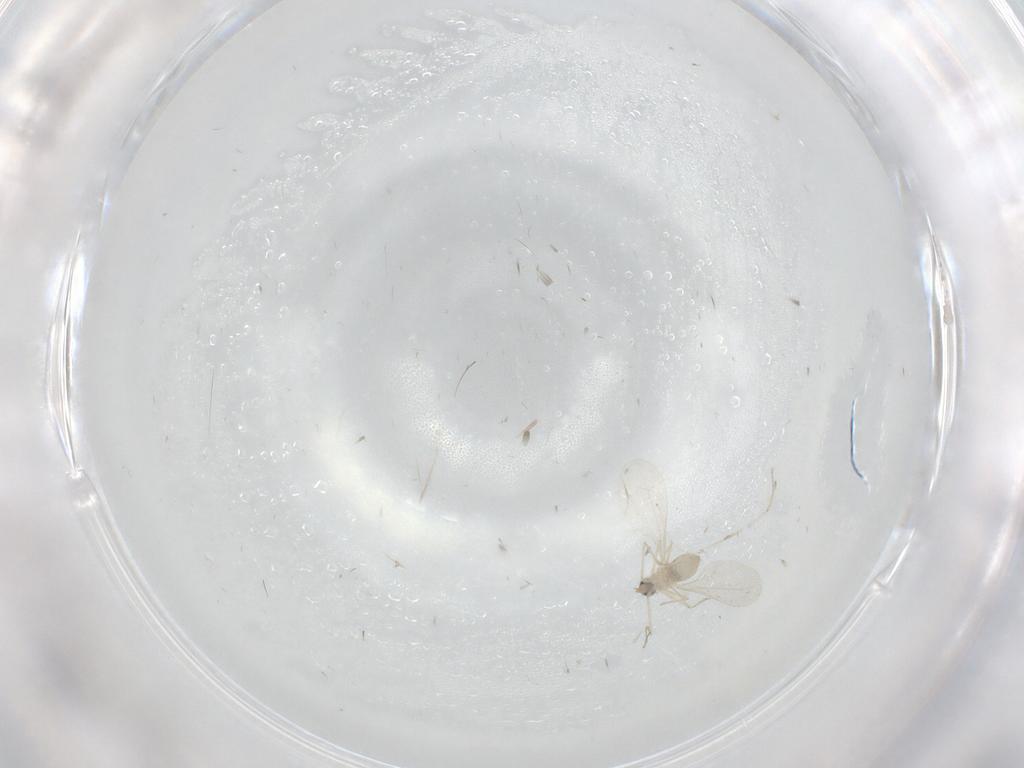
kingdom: Animalia
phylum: Arthropoda
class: Insecta
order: Diptera
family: Cecidomyiidae
